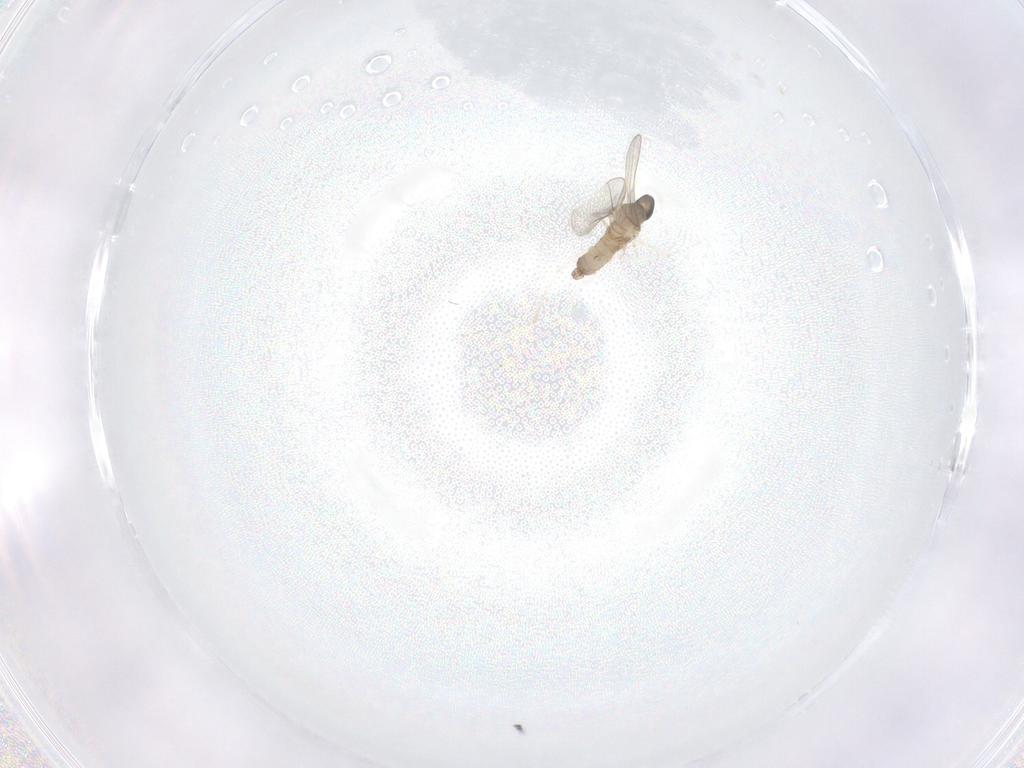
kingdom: Animalia
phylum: Arthropoda
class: Insecta
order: Diptera
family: Cecidomyiidae
